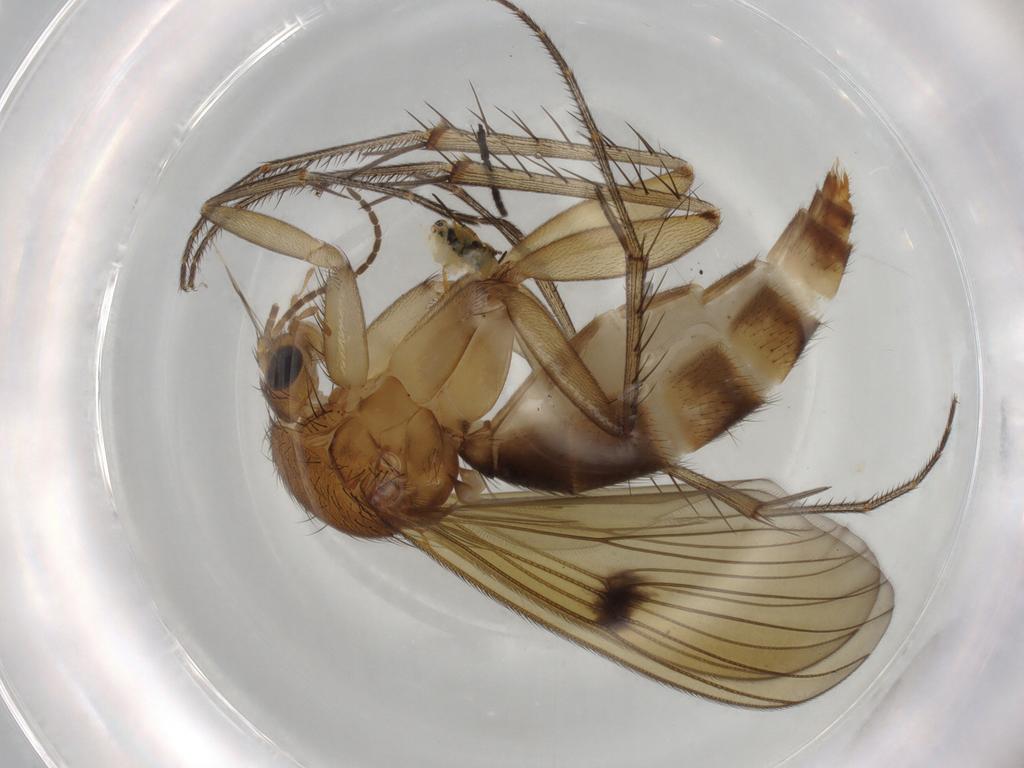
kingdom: Animalia
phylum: Arthropoda
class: Insecta
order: Diptera
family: Mycetophilidae
